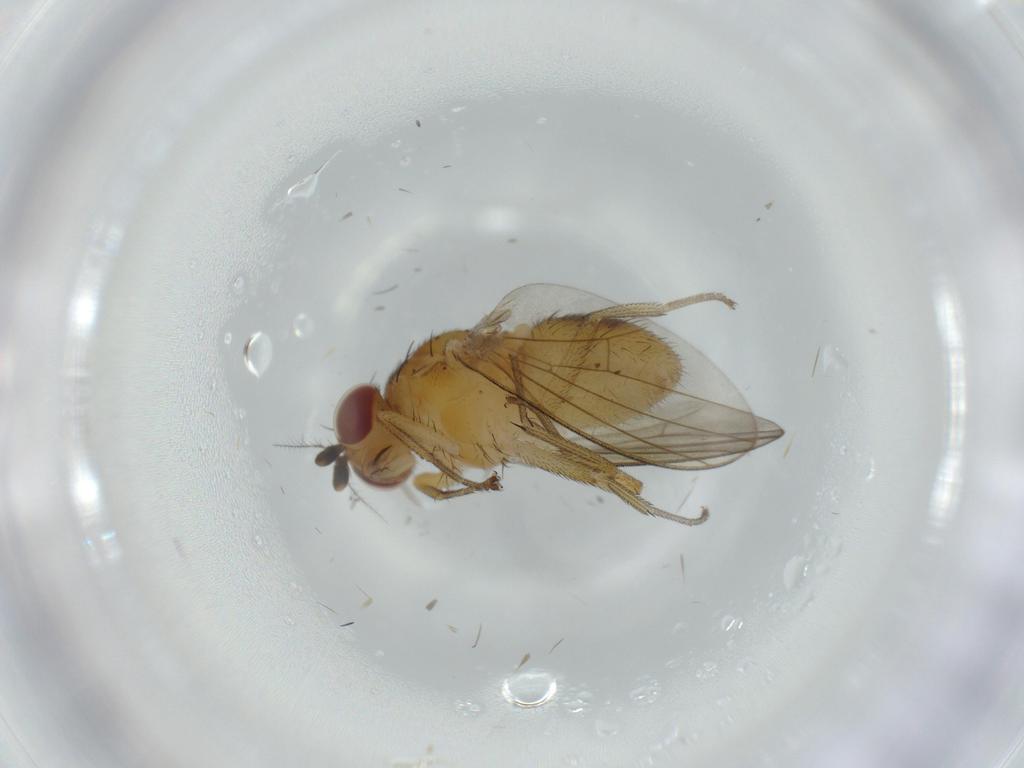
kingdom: Animalia
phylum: Arthropoda
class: Insecta
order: Diptera
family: Lauxaniidae
